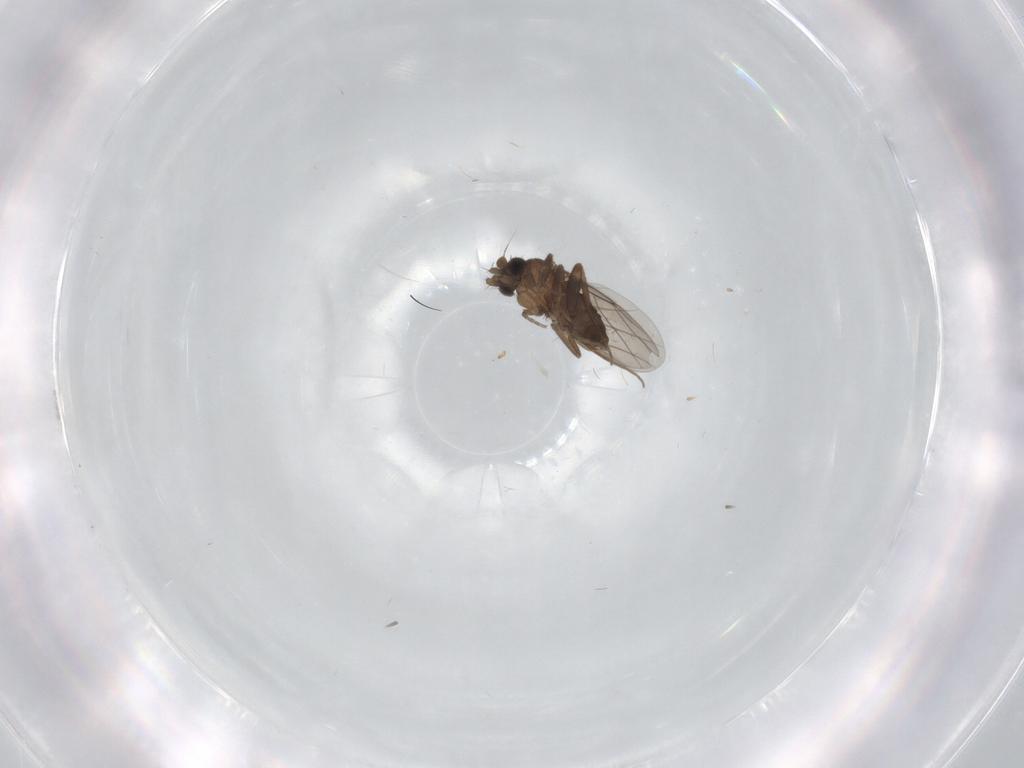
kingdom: Animalia
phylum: Arthropoda
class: Insecta
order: Diptera
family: Phoridae
